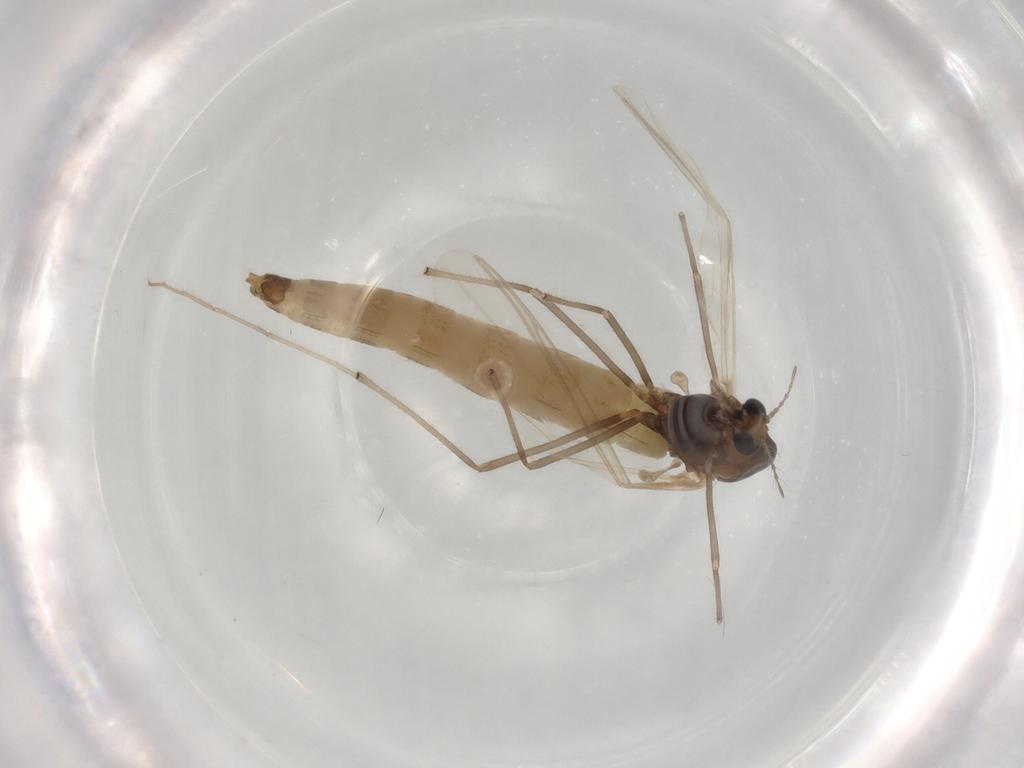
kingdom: Animalia
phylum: Arthropoda
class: Insecta
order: Diptera
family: Chironomidae
